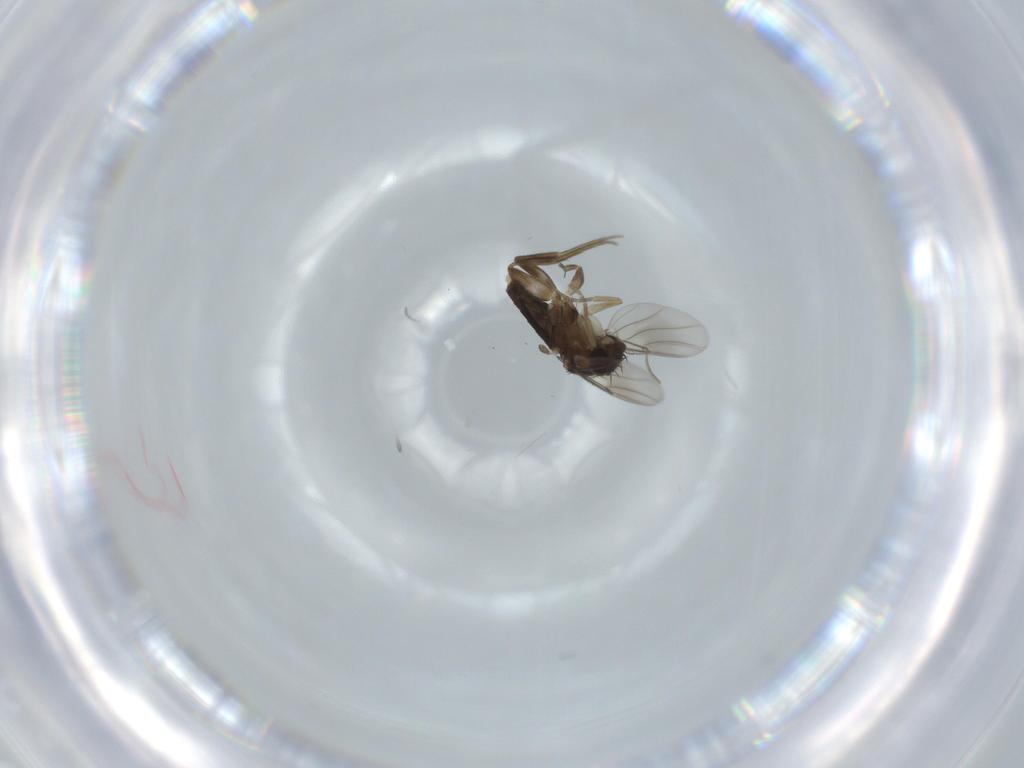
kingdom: Animalia
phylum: Arthropoda
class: Insecta
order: Diptera
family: Phoridae
